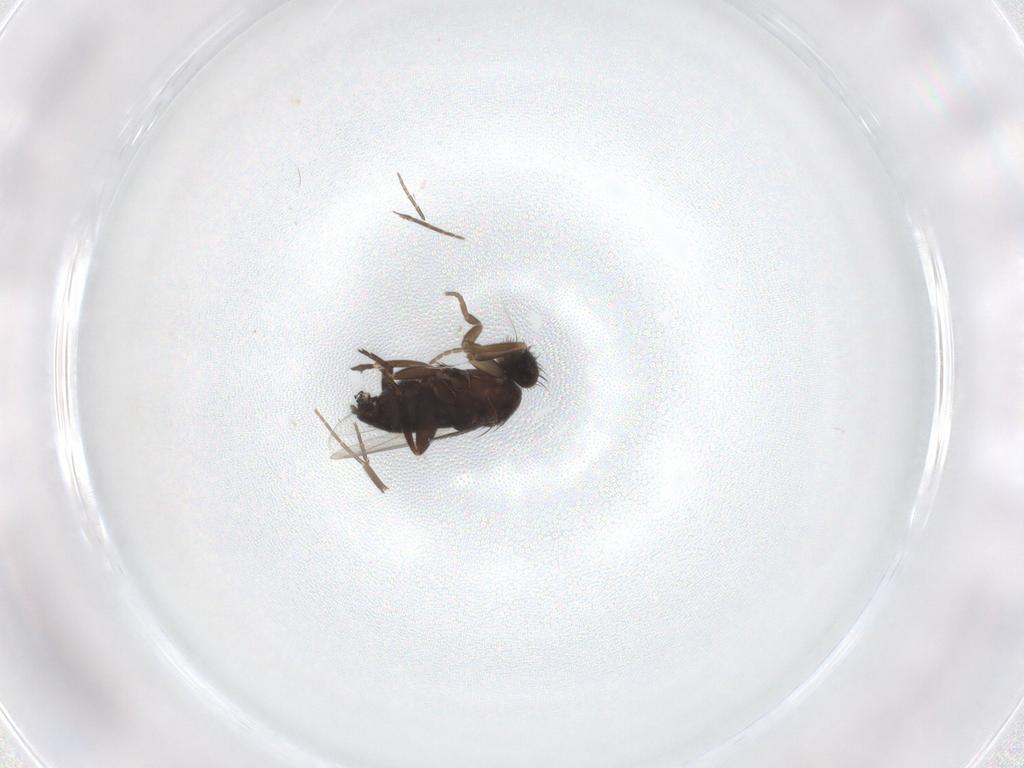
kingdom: Animalia
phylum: Arthropoda
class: Insecta
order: Diptera
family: Phoridae
